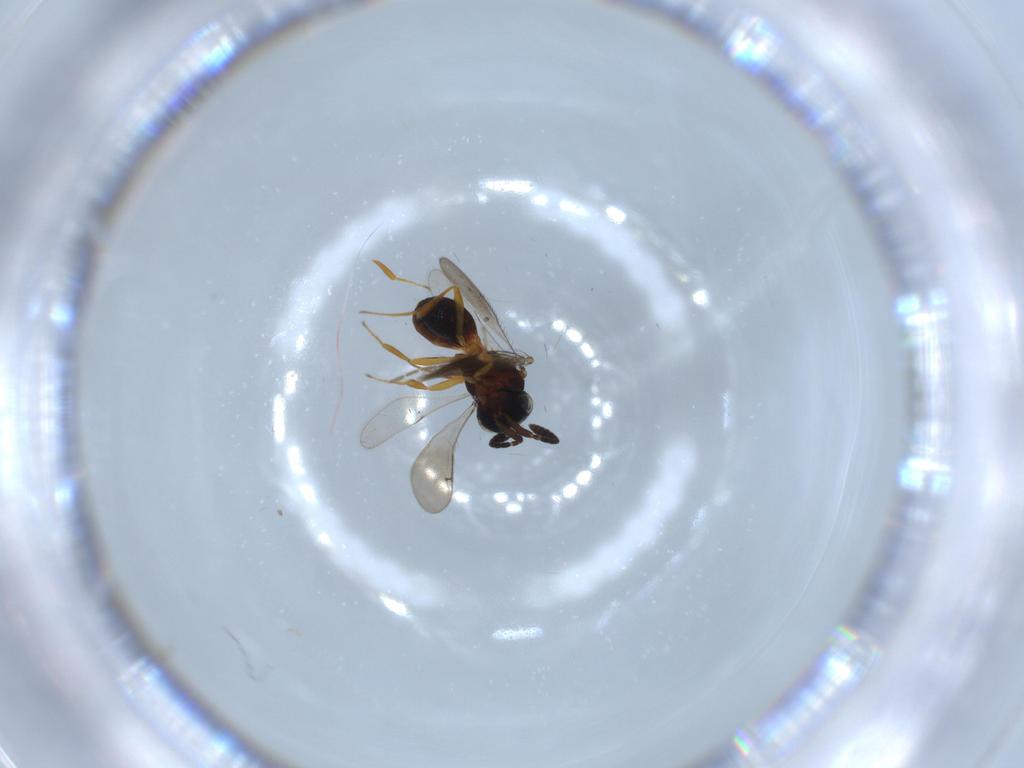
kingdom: Animalia
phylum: Arthropoda
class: Insecta
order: Hymenoptera
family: Scelionidae
